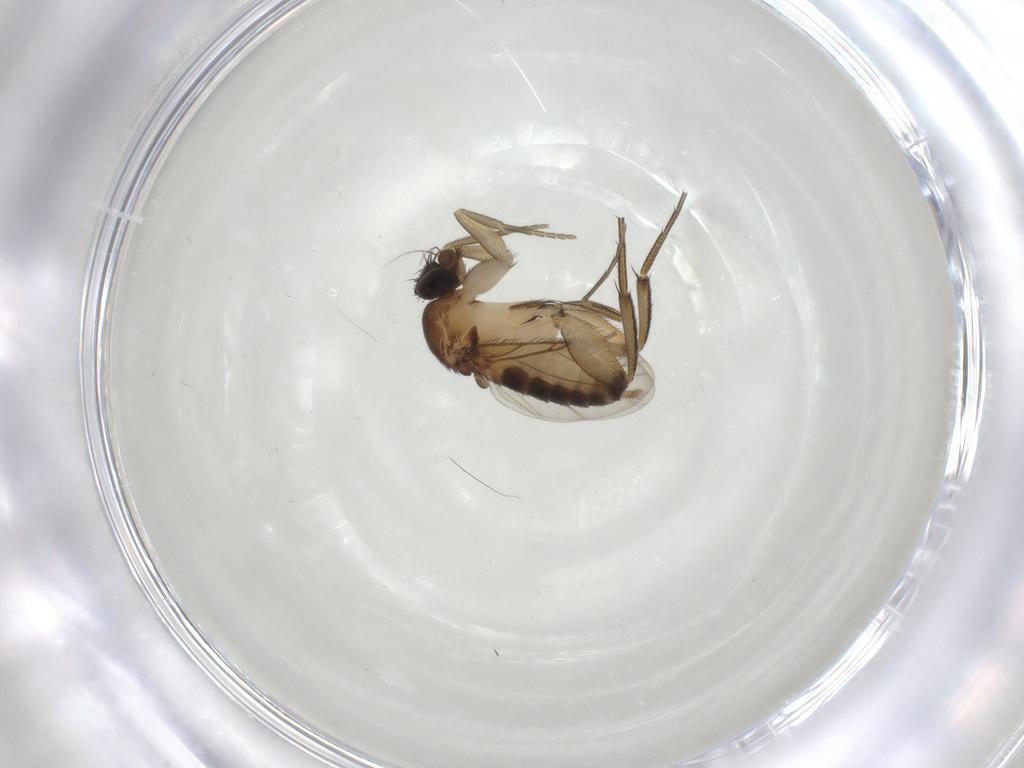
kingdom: Animalia
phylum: Arthropoda
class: Insecta
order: Diptera
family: Phoridae
